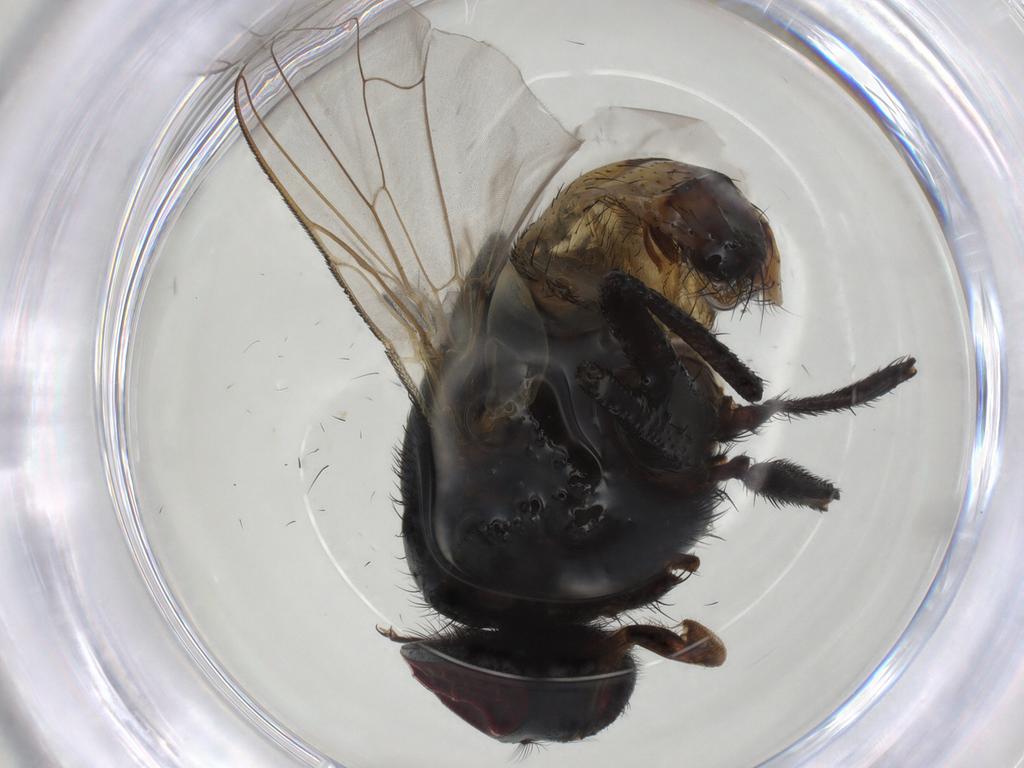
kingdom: Animalia
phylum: Arthropoda
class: Insecta
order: Diptera
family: Muscidae
